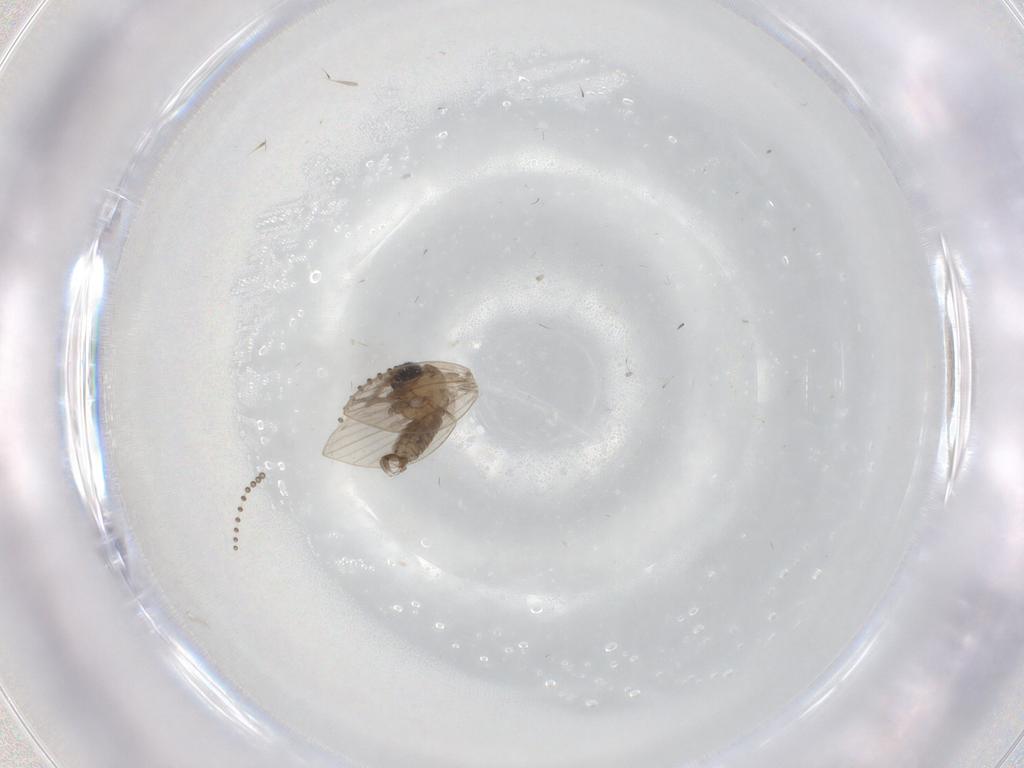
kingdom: Animalia
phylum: Arthropoda
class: Insecta
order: Diptera
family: Psychodidae
